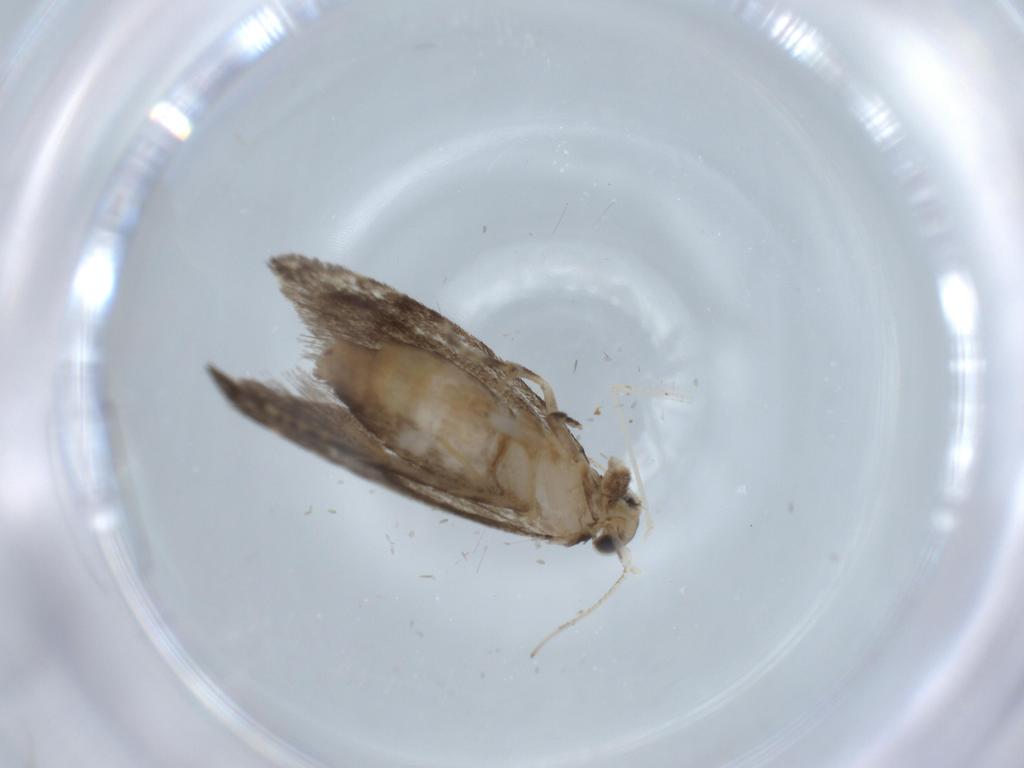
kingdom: Animalia
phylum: Arthropoda
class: Insecta
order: Lepidoptera
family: Tineidae
